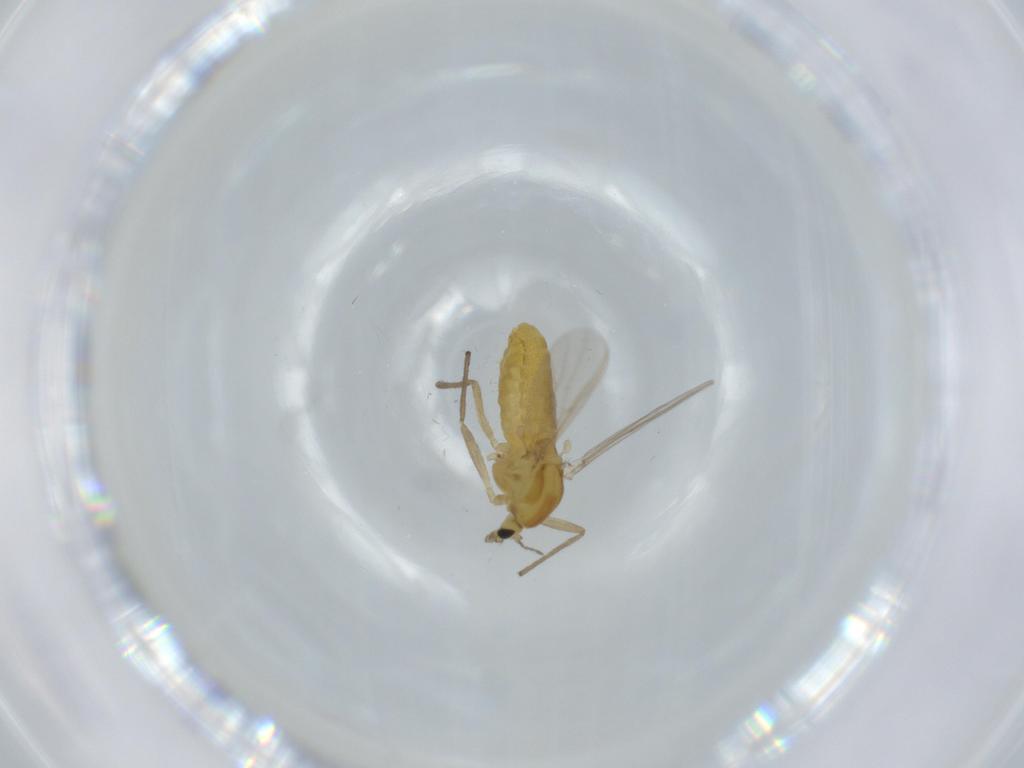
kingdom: Animalia
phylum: Arthropoda
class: Insecta
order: Diptera
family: Chironomidae
